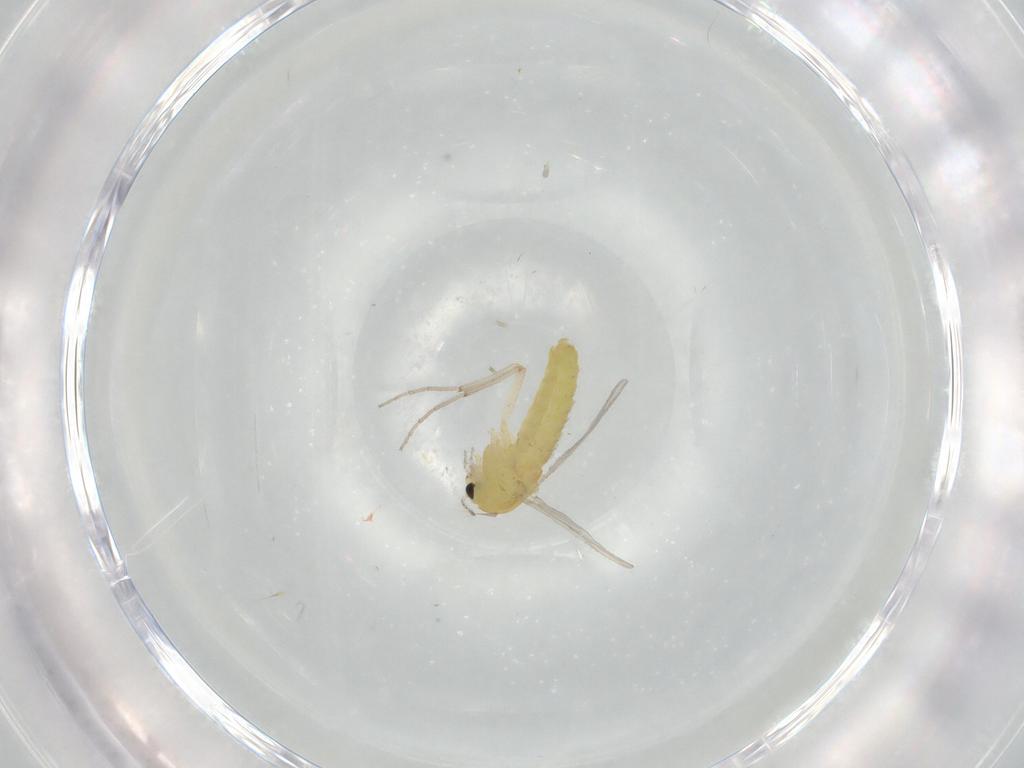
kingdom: Animalia
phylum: Arthropoda
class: Insecta
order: Diptera
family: Chironomidae
